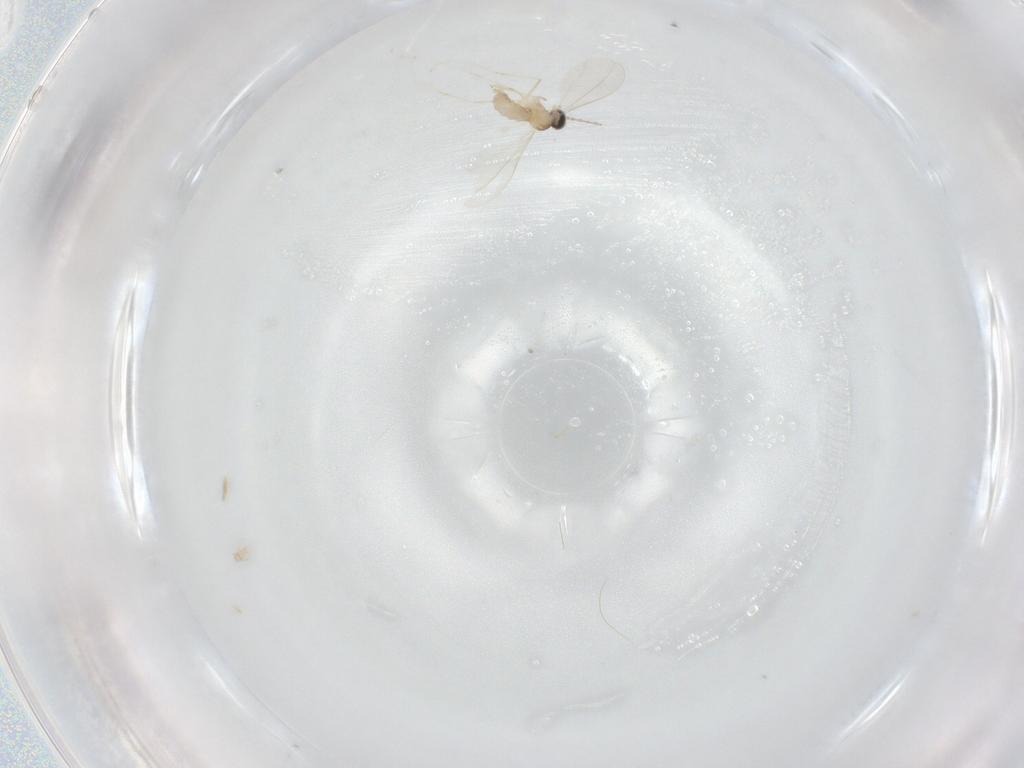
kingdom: Animalia
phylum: Arthropoda
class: Insecta
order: Diptera
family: Cecidomyiidae
